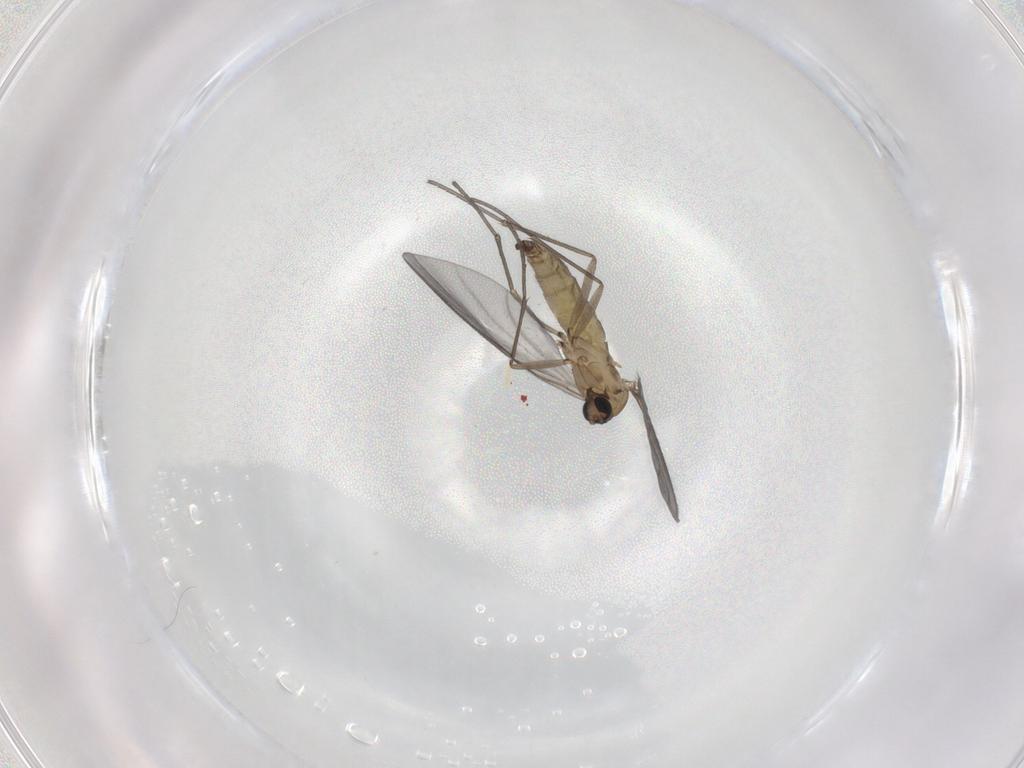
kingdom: Animalia
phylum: Arthropoda
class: Insecta
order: Diptera
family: Sciaridae
